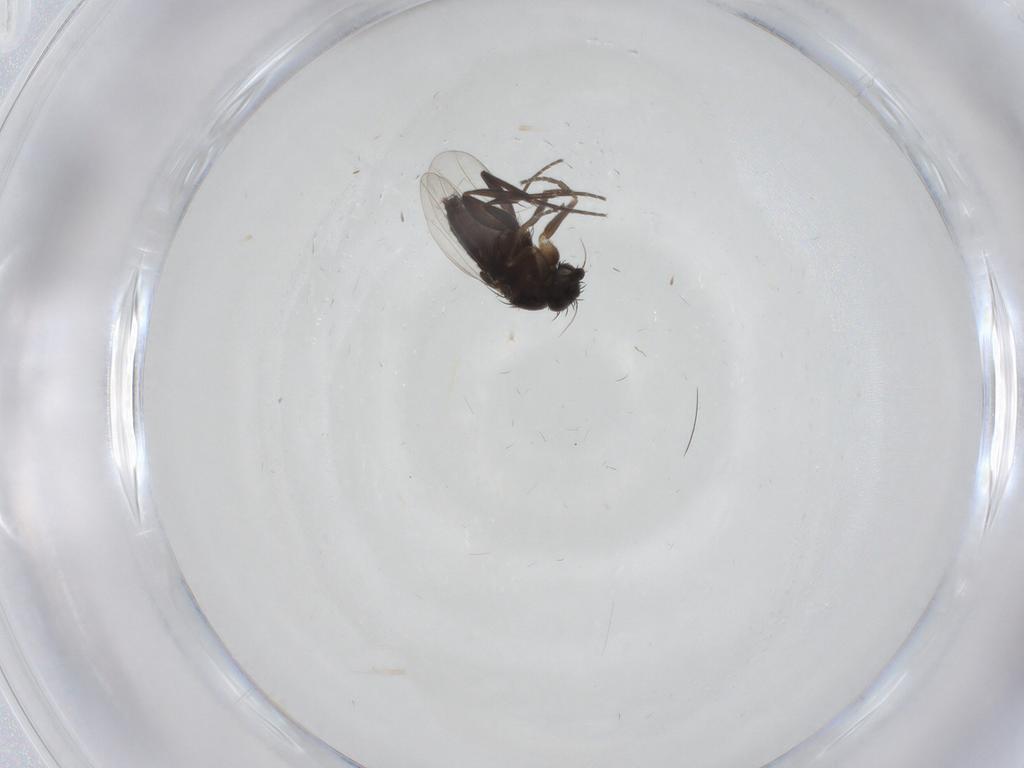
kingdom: Animalia
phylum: Arthropoda
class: Insecta
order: Diptera
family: Phoridae
